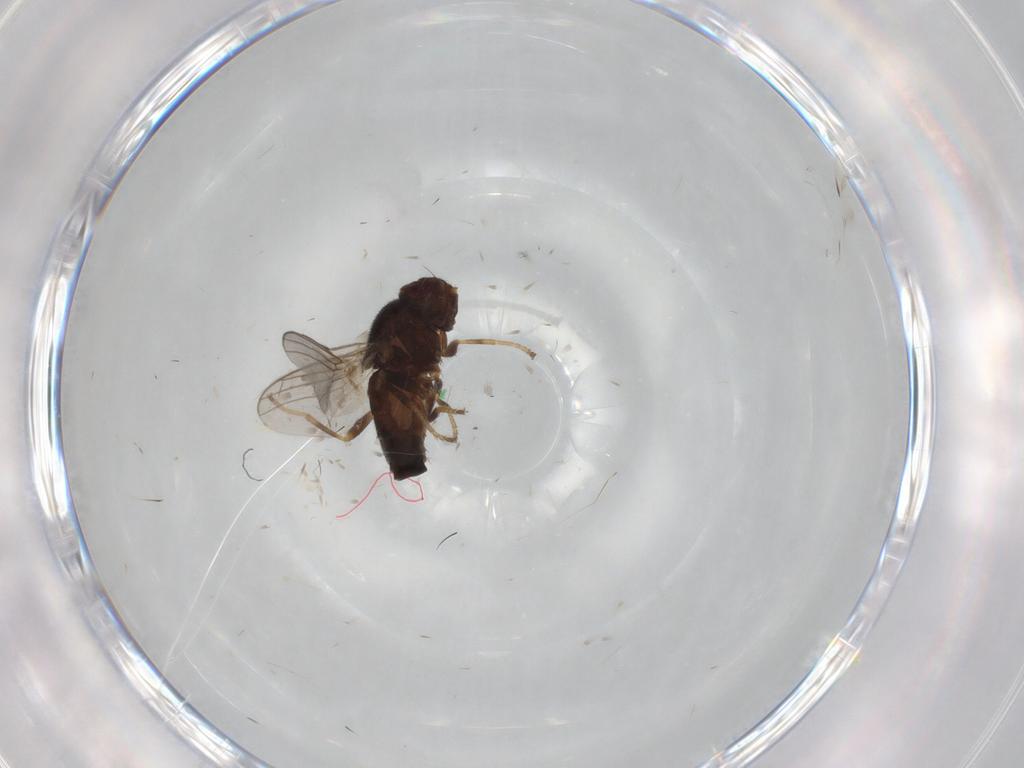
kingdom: Animalia
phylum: Arthropoda
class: Insecta
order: Diptera
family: Chloropidae
